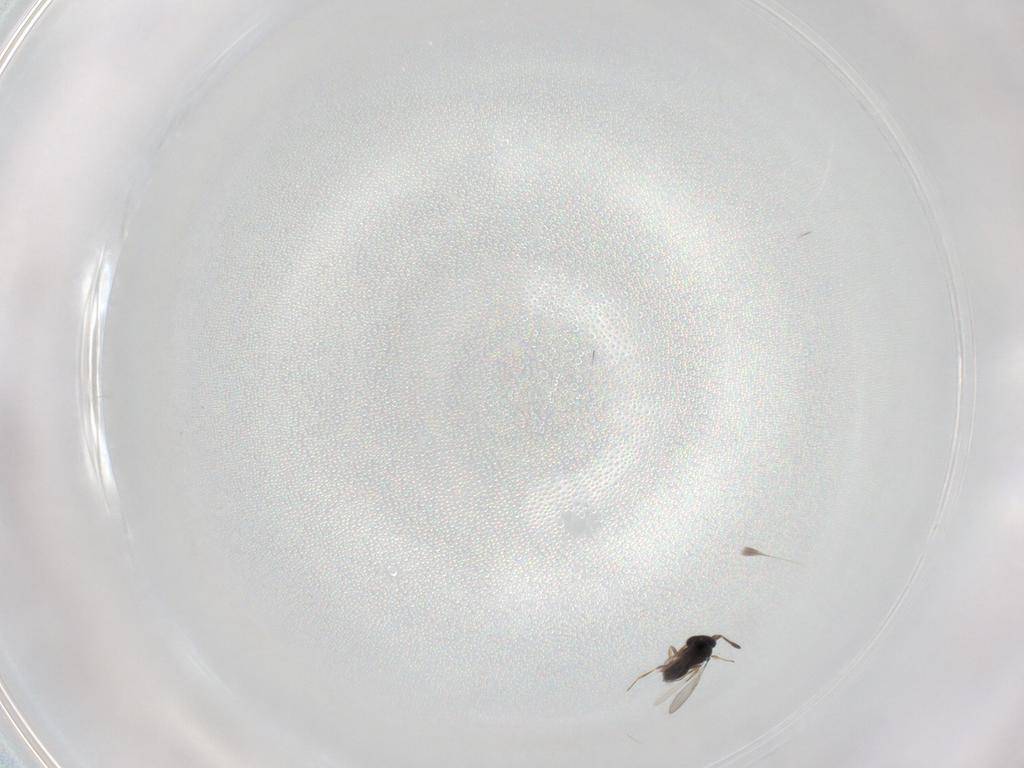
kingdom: Animalia
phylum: Arthropoda
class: Insecta
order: Hymenoptera
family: Scelionidae
